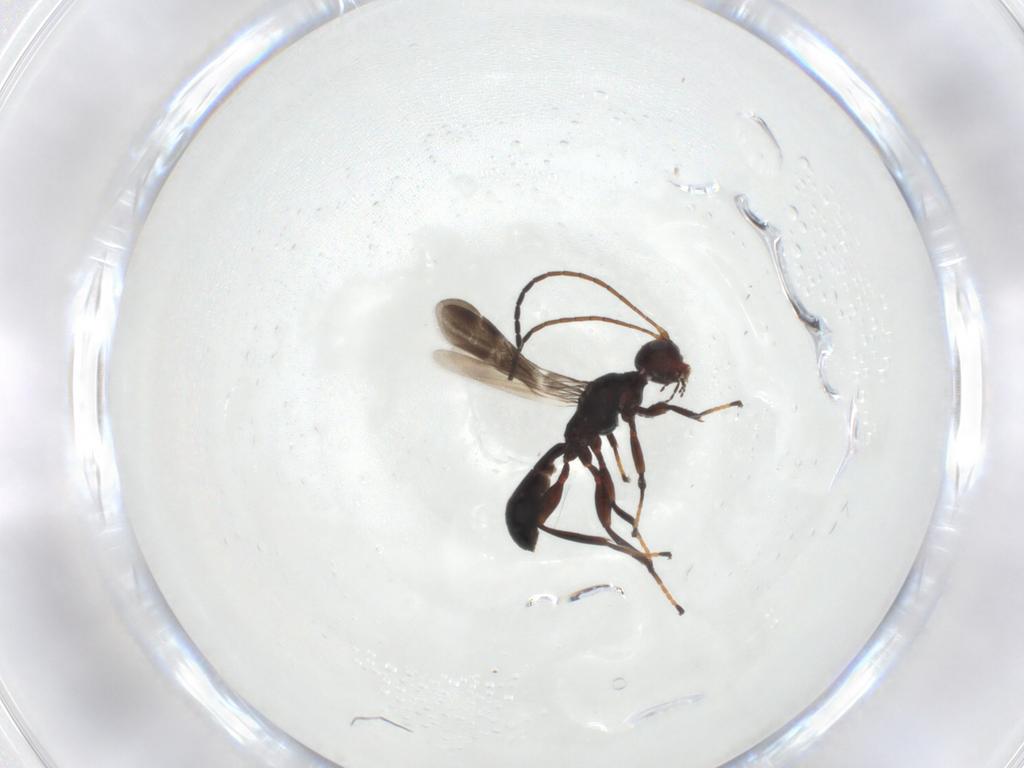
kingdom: Animalia
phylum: Arthropoda
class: Insecta
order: Hymenoptera
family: Braconidae
